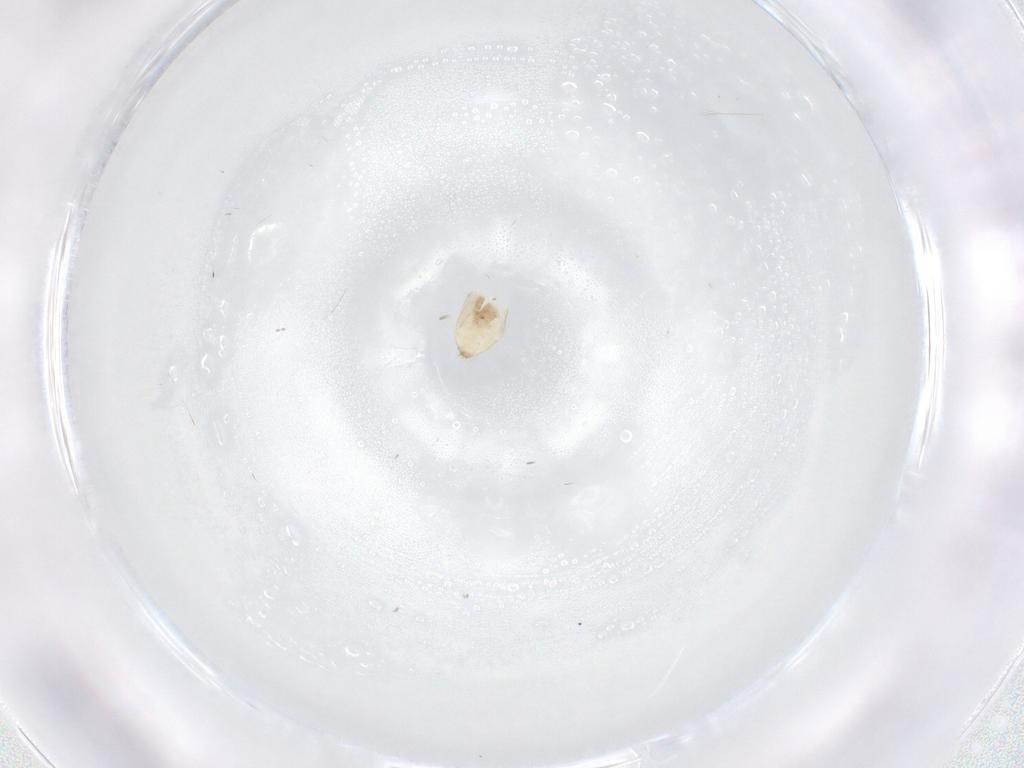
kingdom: Animalia
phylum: Arthropoda
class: Insecta
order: Diptera
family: Cecidomyiidae
